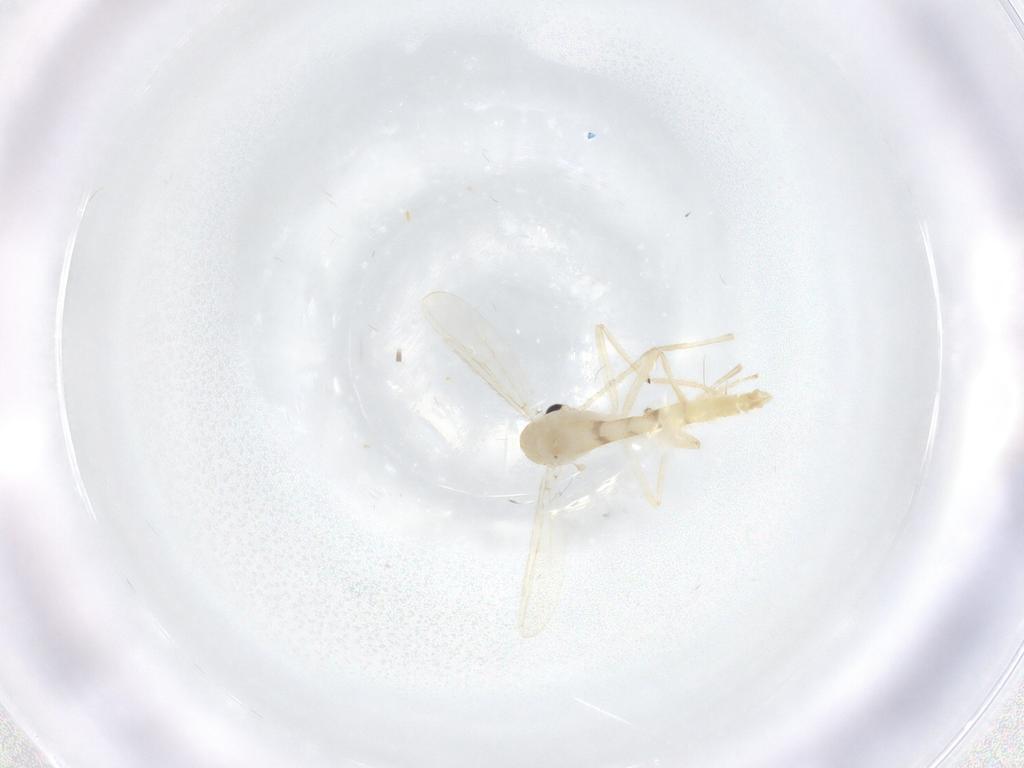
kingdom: Animalia
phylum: Arthropoda
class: Insecta
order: Diptera
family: Chironomidae
